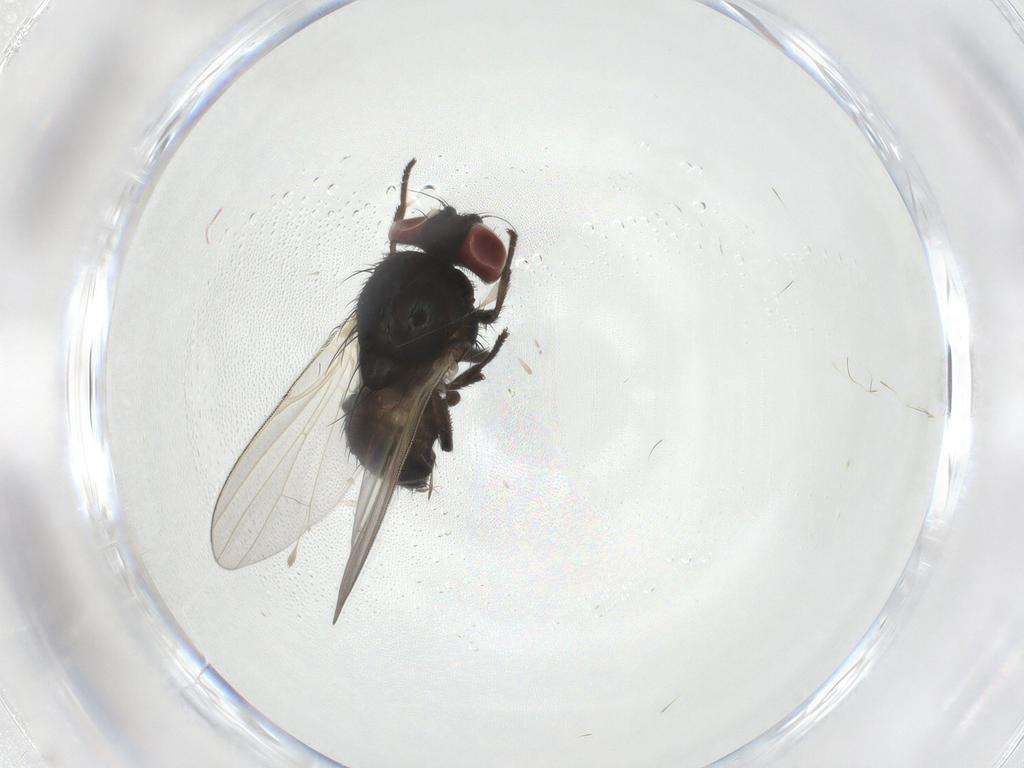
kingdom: Animalia
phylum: Arthropoda
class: Insecta
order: Diptera
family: Lonchaeidae
